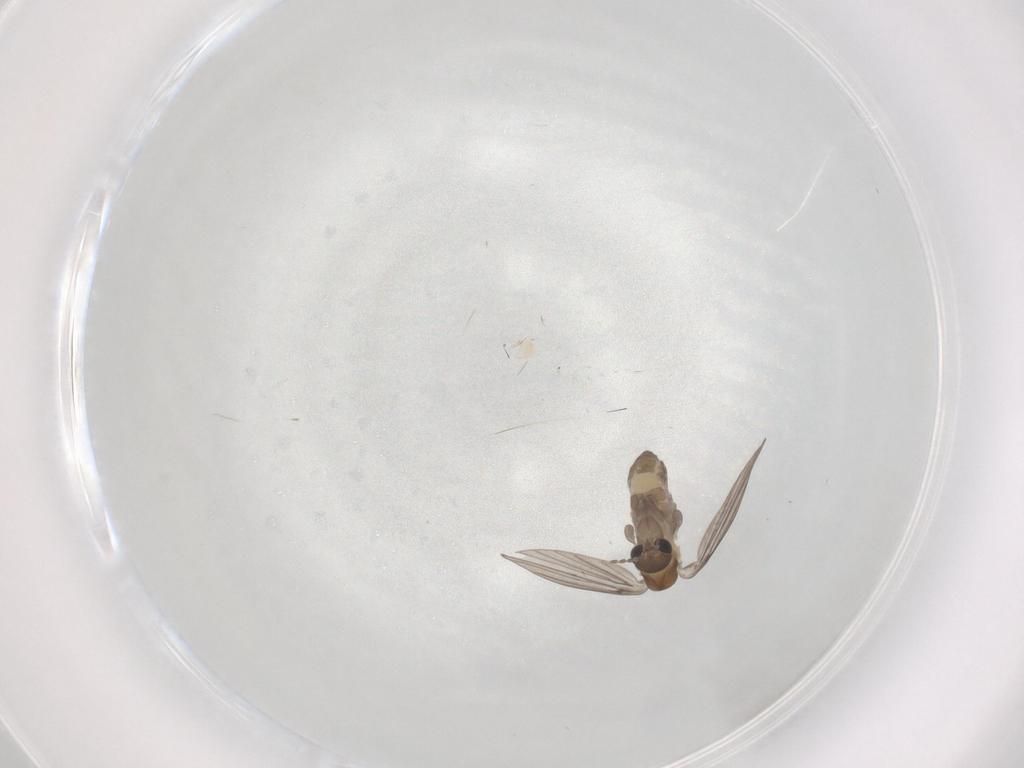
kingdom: Animalia
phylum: Arthropoda
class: Insecta
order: Diptera
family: Psychodidae
